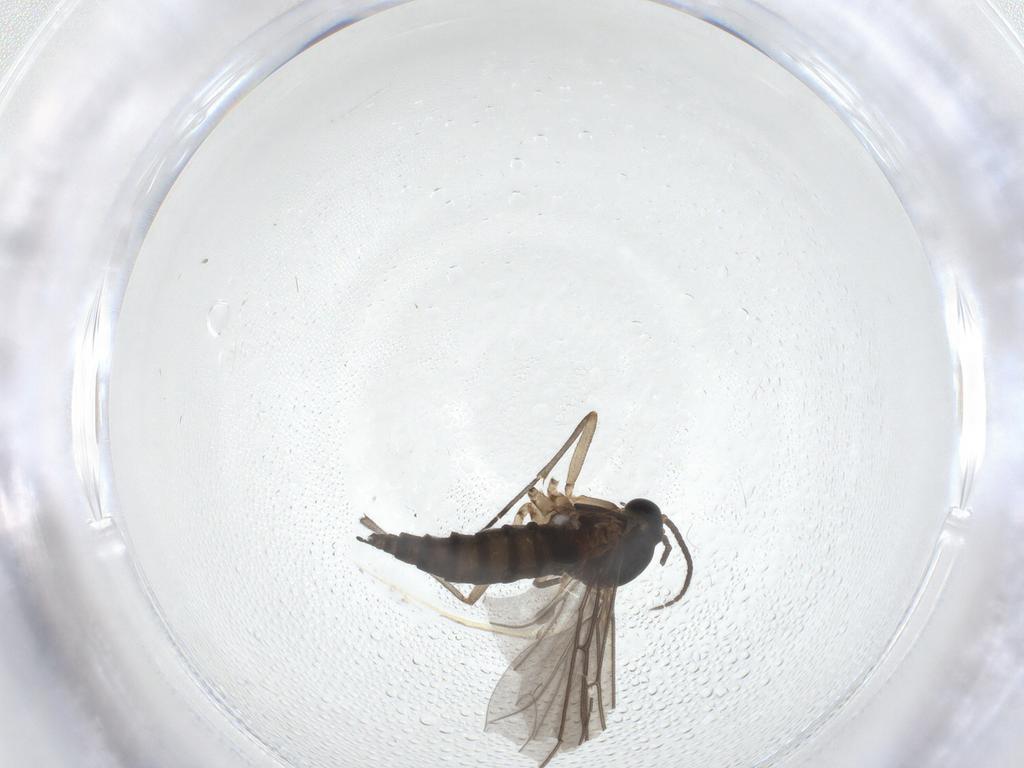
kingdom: Animalia
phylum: Arthropoda
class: Insecta
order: Diptera
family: Sciaridae
